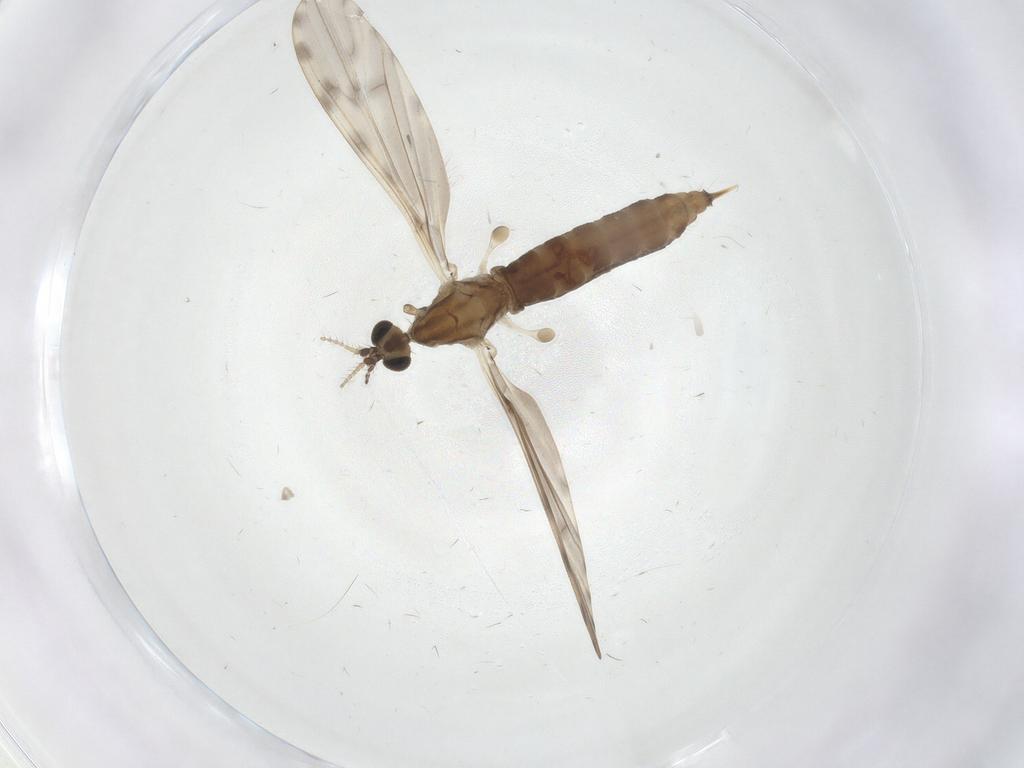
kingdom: Animalia
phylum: Arthropoda
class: Insecta
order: Diptera
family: Limoniidae
